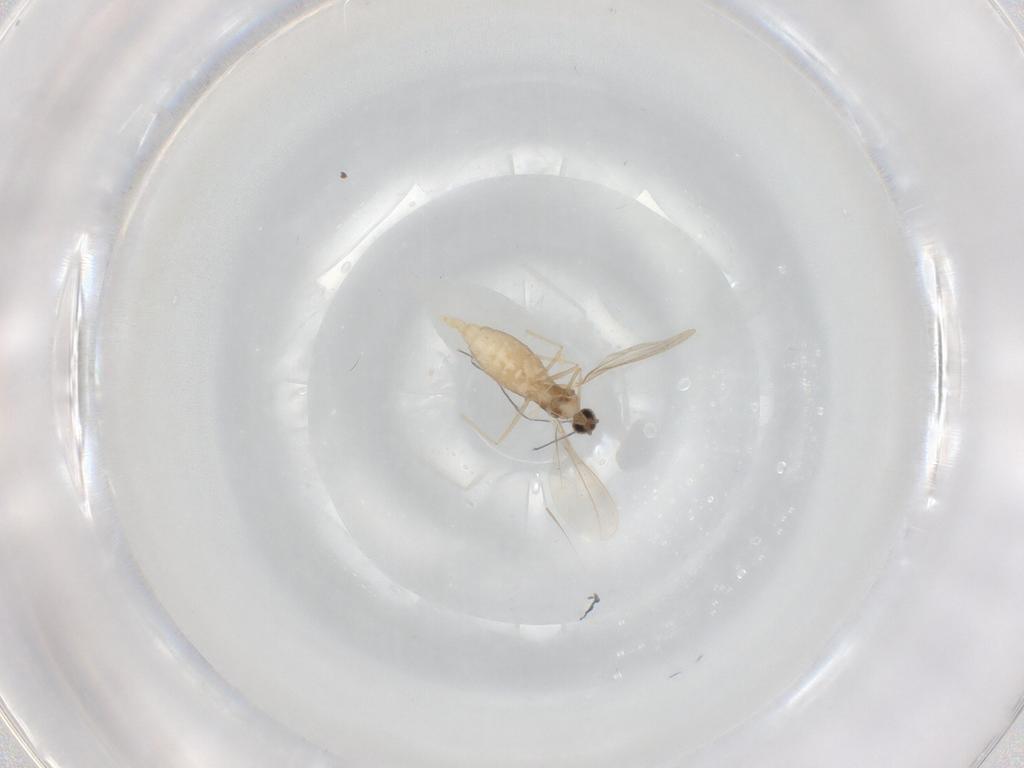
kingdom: Animalia
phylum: Arthropoda
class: Insecta
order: Diptera
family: Cecidomyiidae
